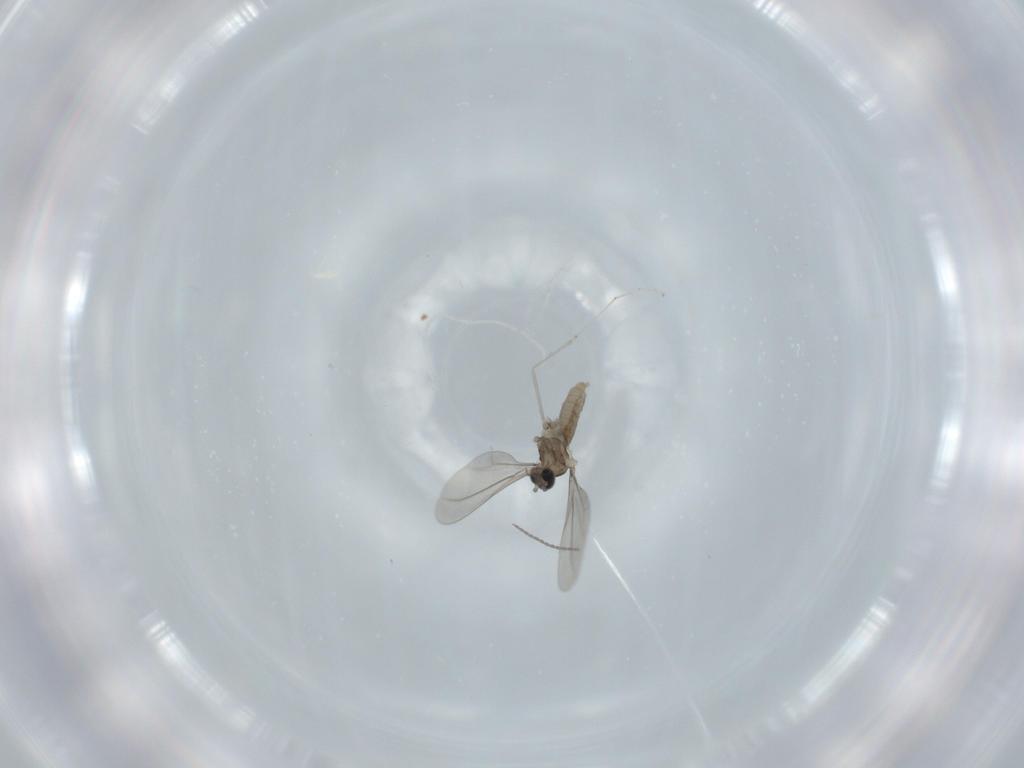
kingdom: Animalia
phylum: Arthropoda
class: Insecta
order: Diptera
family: Cecidomyiidae
